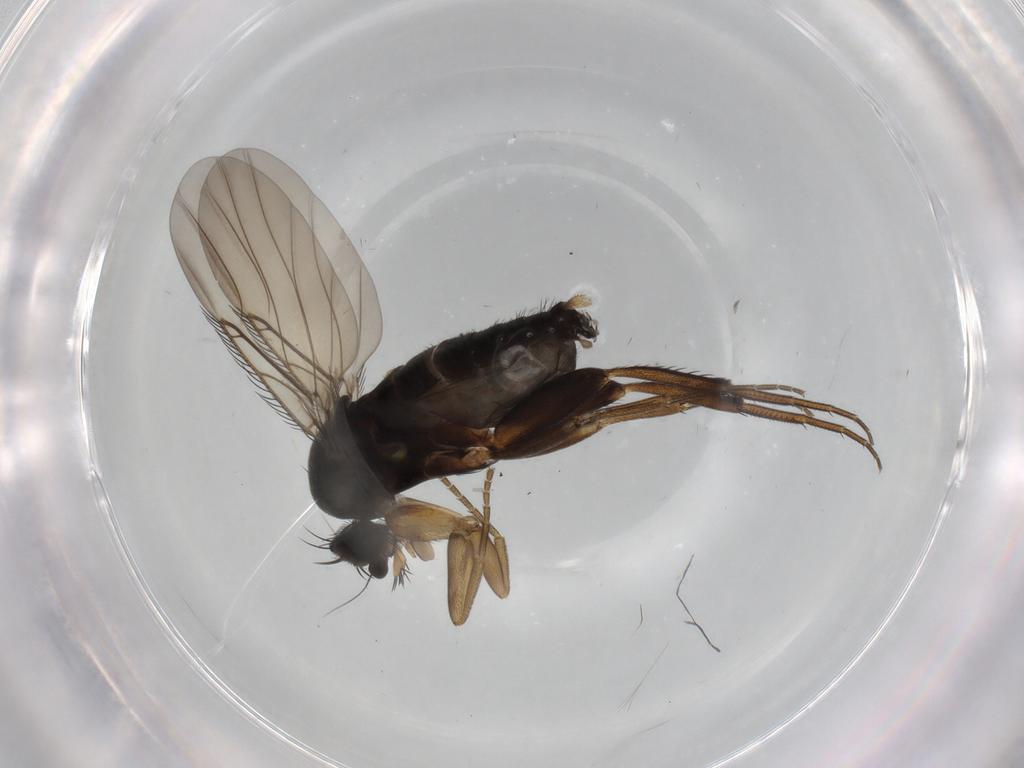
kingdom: Animalia
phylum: Arthropoda
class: Insecta
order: Diptera
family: Phoridae
